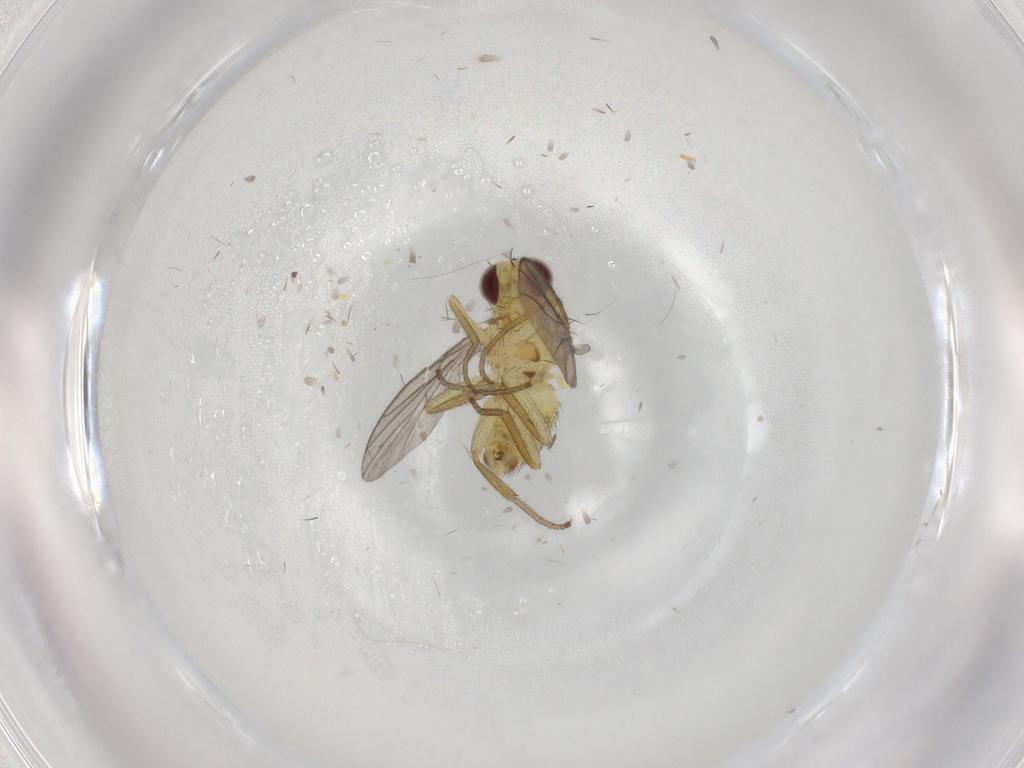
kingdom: Animalia
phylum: Arthropoda
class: Insecta
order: Diptera
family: Agromyzidae
